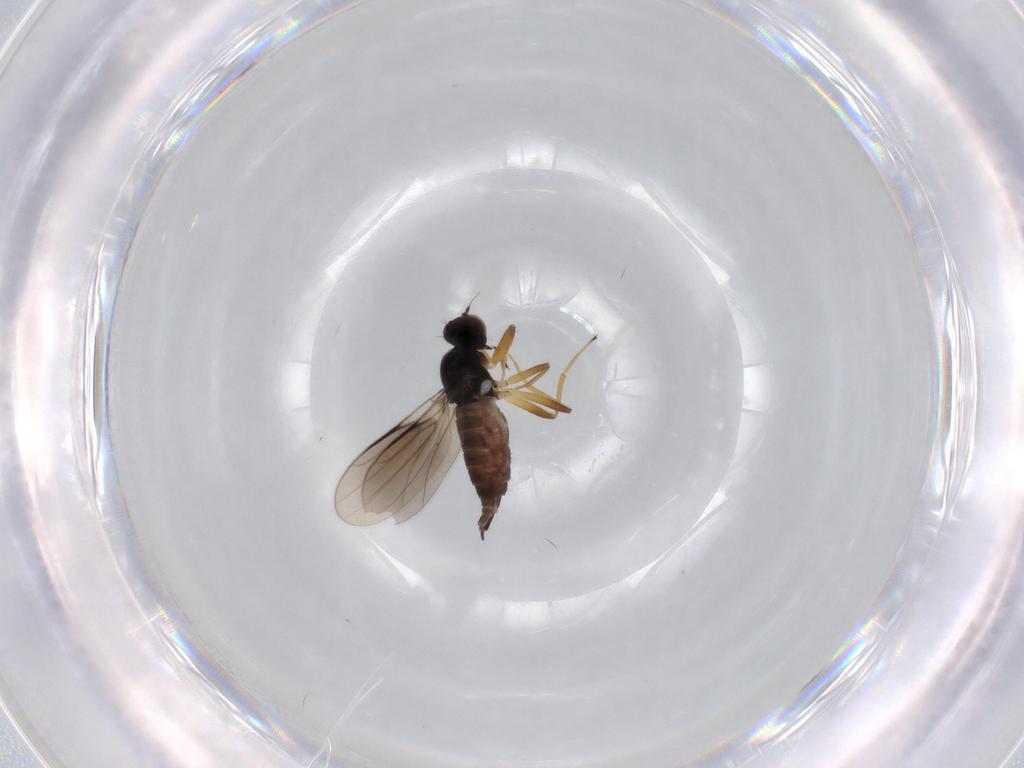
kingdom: Animalia
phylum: Arthropoda
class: Insecta
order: Diptera
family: Hybotidae
